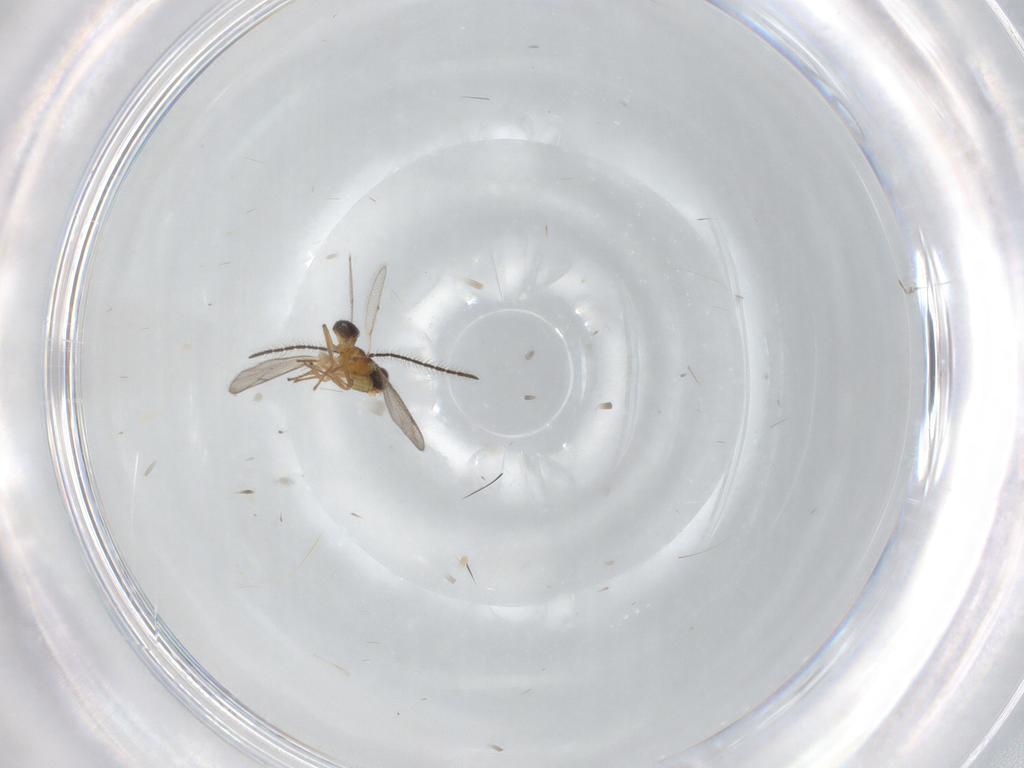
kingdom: Animalia
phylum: Arthropoda
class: Insecta
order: Hymenoptera
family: Eupelmidae
